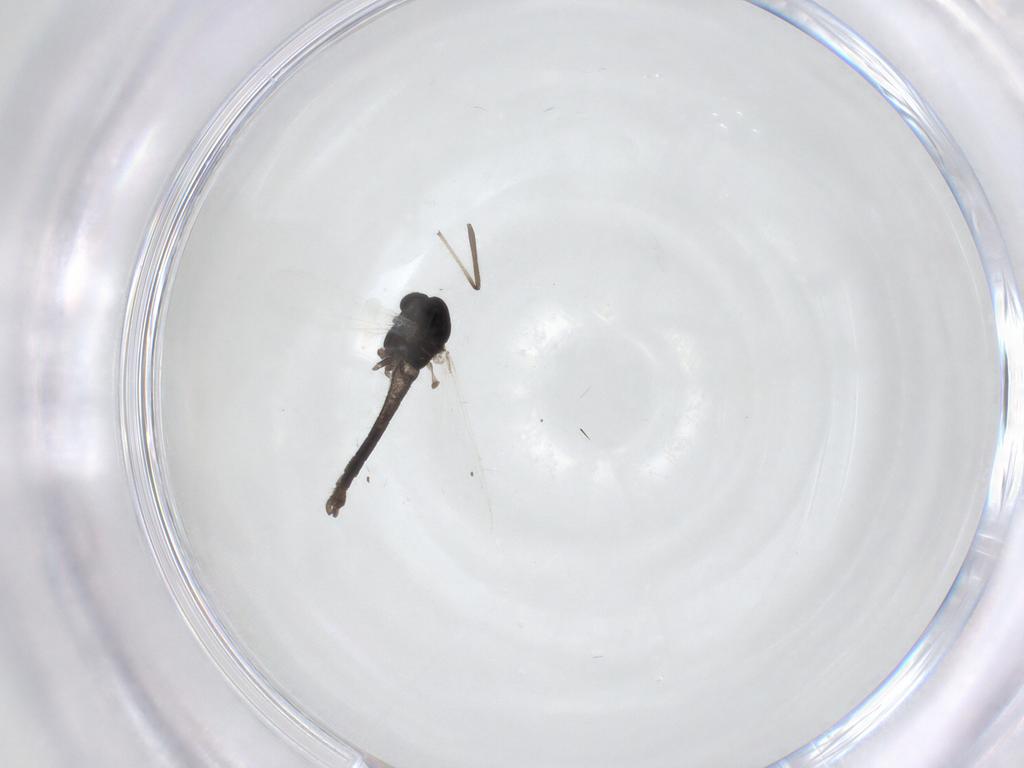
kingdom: Animalia
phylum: Arthropoda
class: Insecta
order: Diptera
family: Chironomidae
